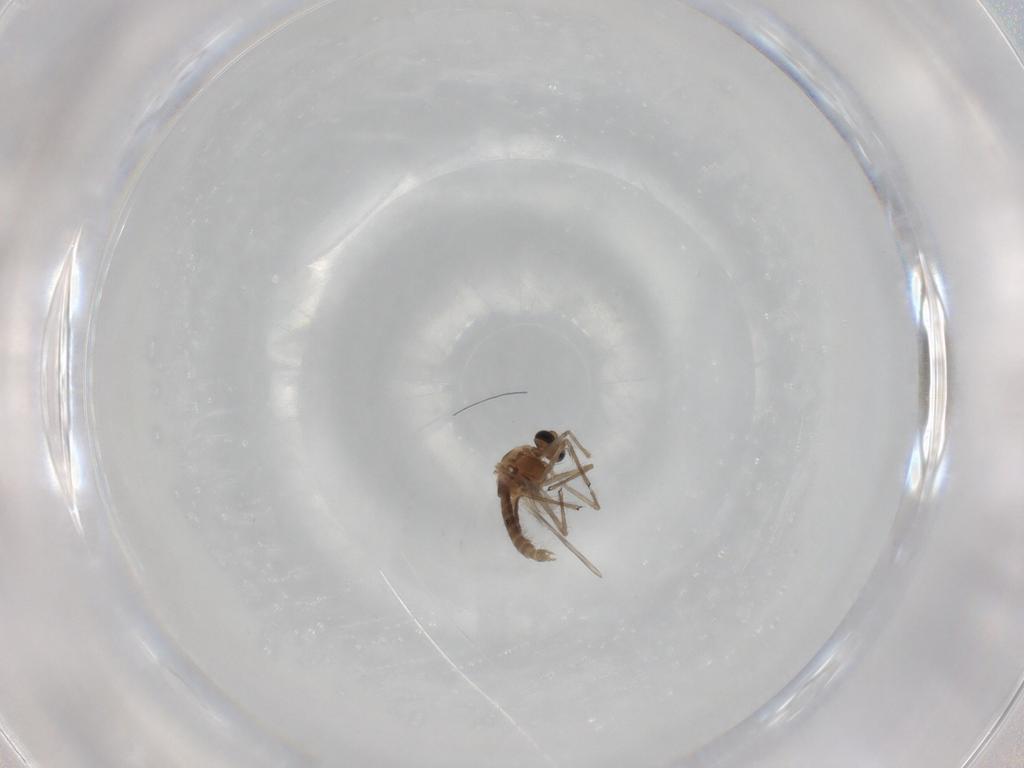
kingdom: Animalia
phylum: Arthropoda
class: Insecta
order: Diptera
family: Chironomidae
